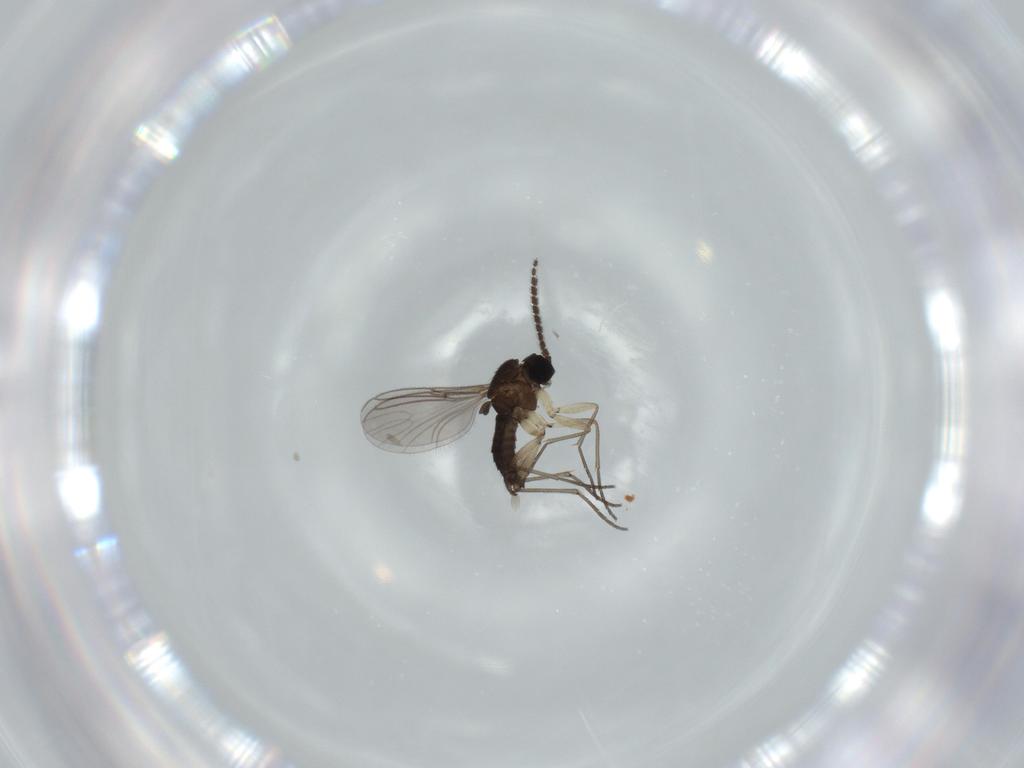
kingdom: Animalia
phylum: Arthropoda
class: Insecta
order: Diptera
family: Sciaridae
